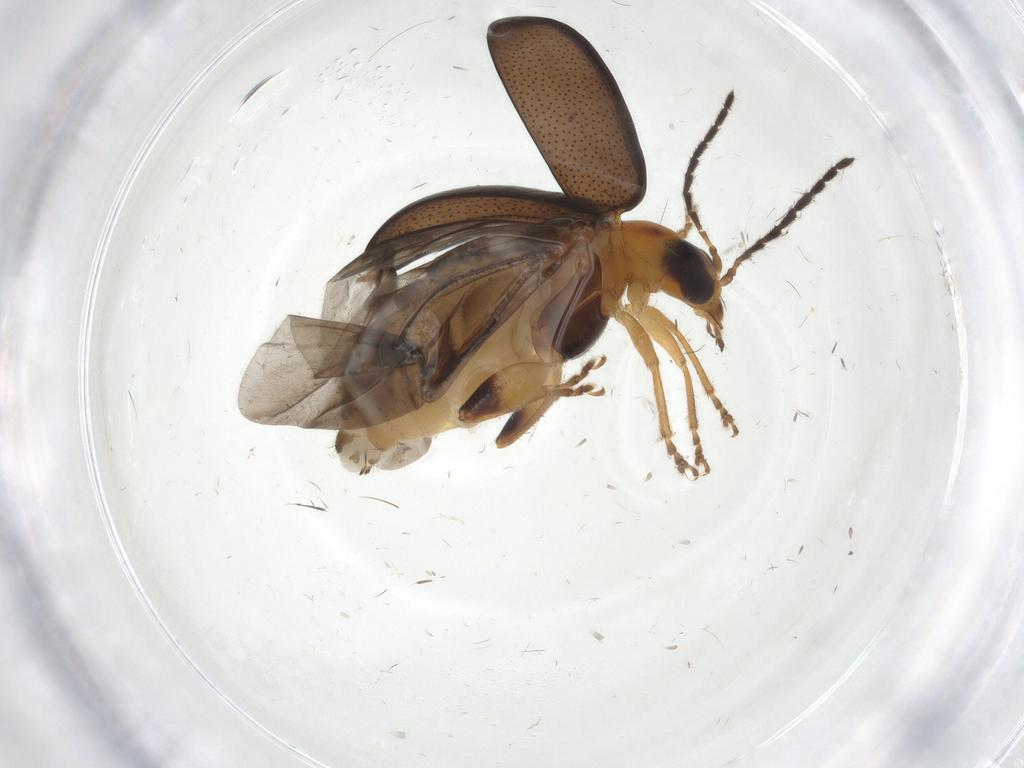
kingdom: Animalia
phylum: Arthropoda
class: Insecta
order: Coleoptera
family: Chrysomelidae
